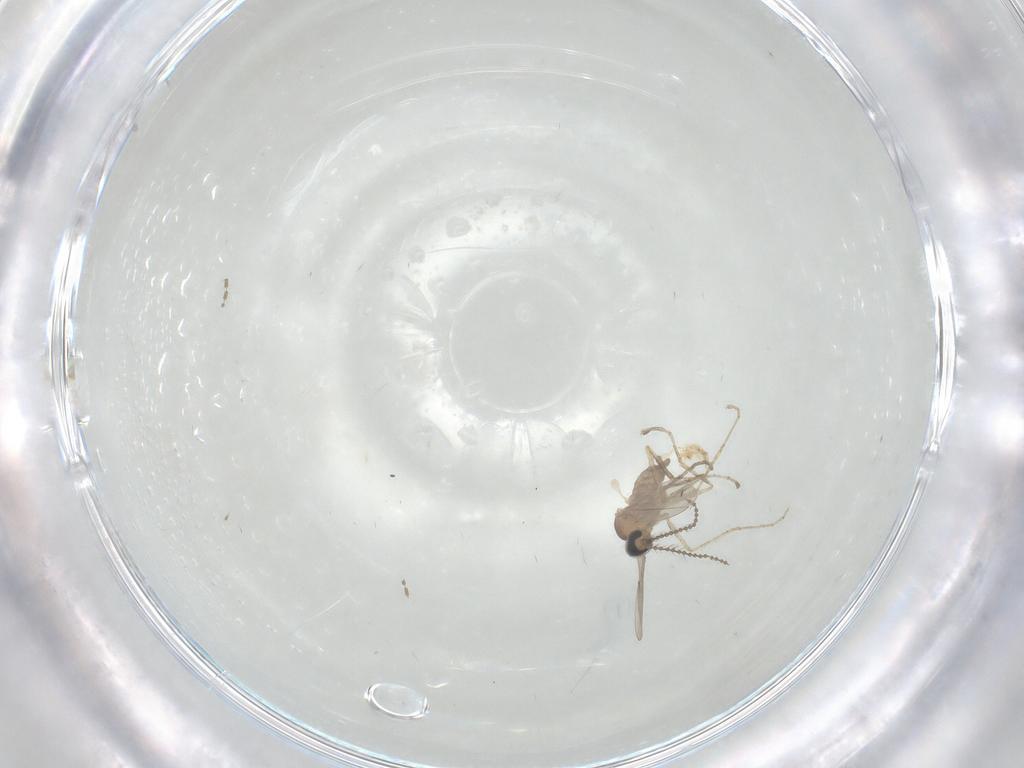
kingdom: Animalia
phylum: Arthropoda
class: Insecta
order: Diptera
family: Cecidomyiidae
